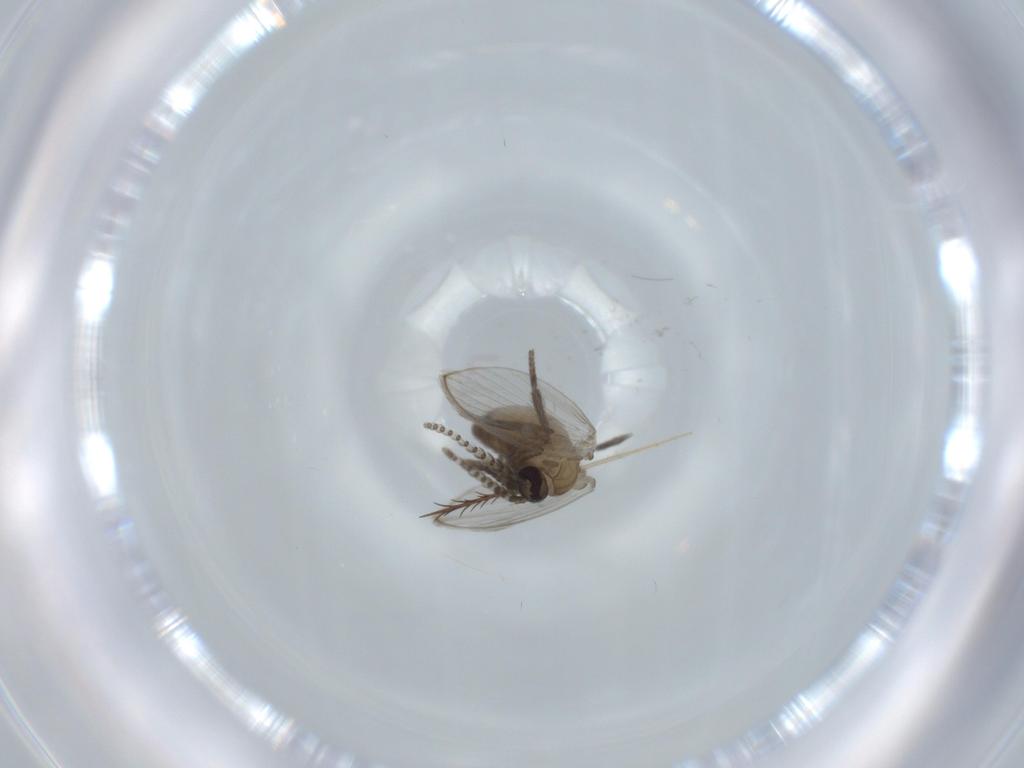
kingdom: Animalia
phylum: Arthropoda
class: Insecta
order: Diptera
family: Psychodidae
